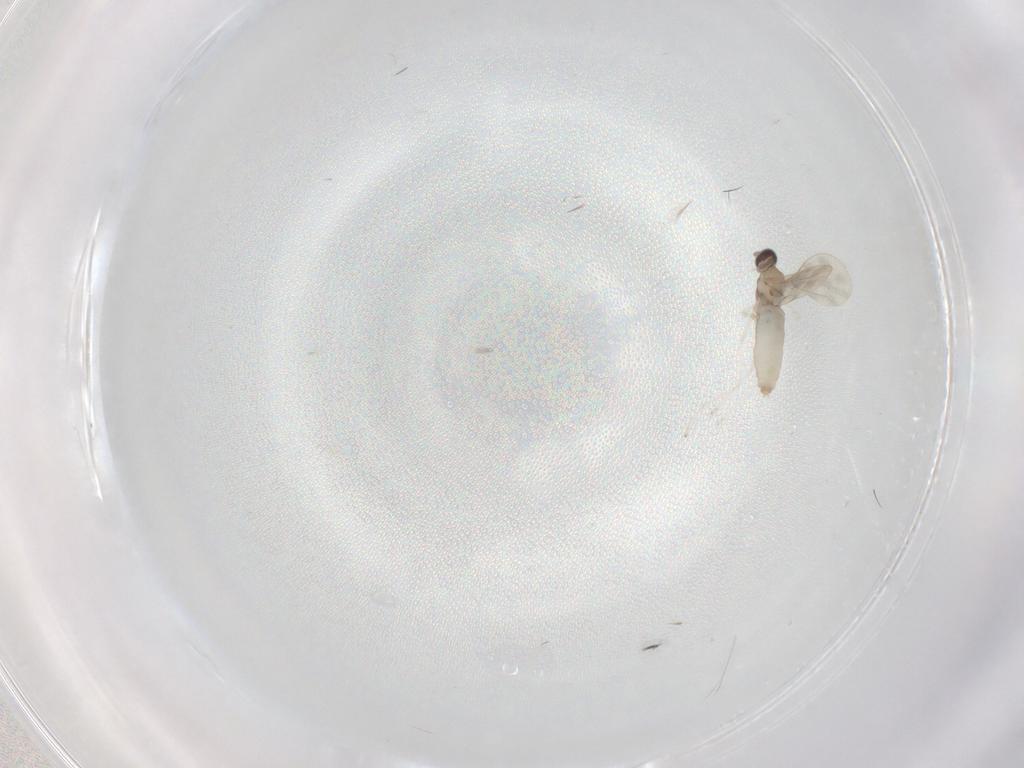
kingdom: Animalia
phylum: Arthropoda
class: Insecta
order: Diptera
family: Cecidomyiidae
